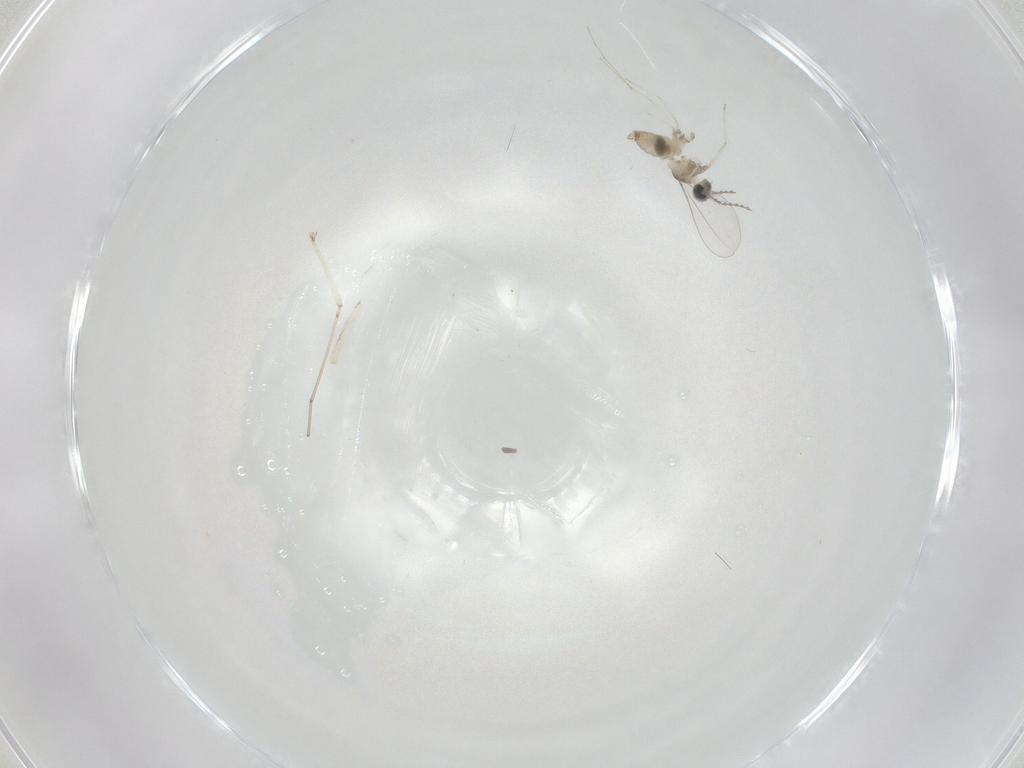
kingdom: Animalia
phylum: Arthropoda
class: Insecta
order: Diptera
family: Cecidomyiidae
